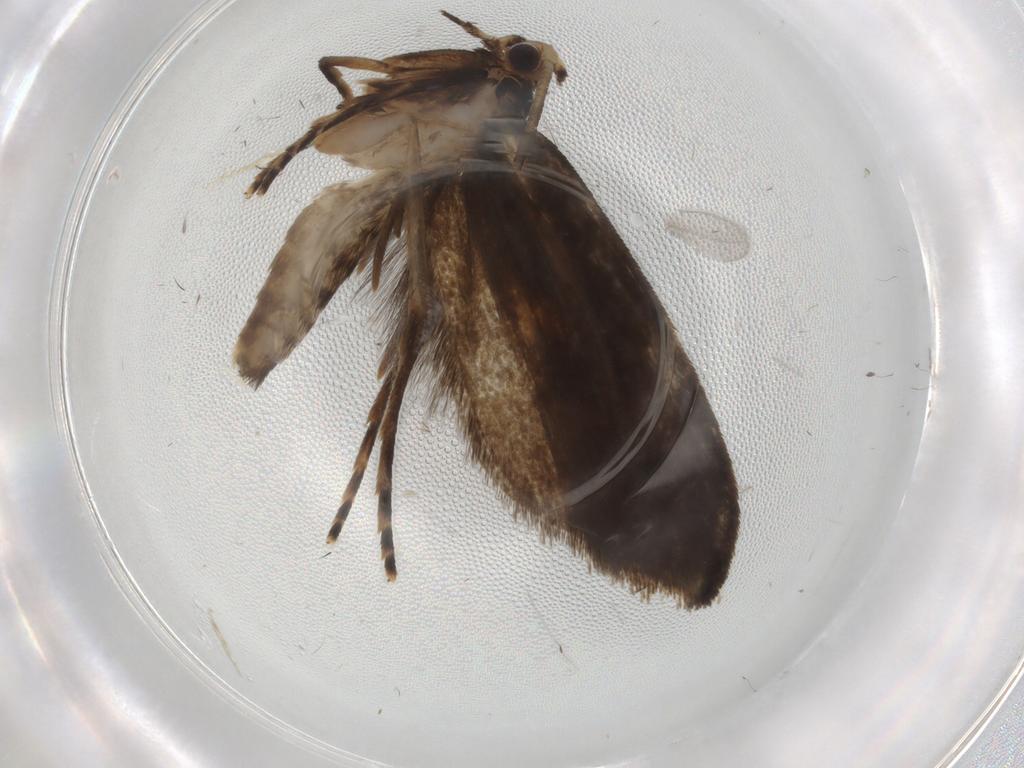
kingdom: Animalia
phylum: Arthropoda
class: Insecta
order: Lepidoptera
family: Tineidae
